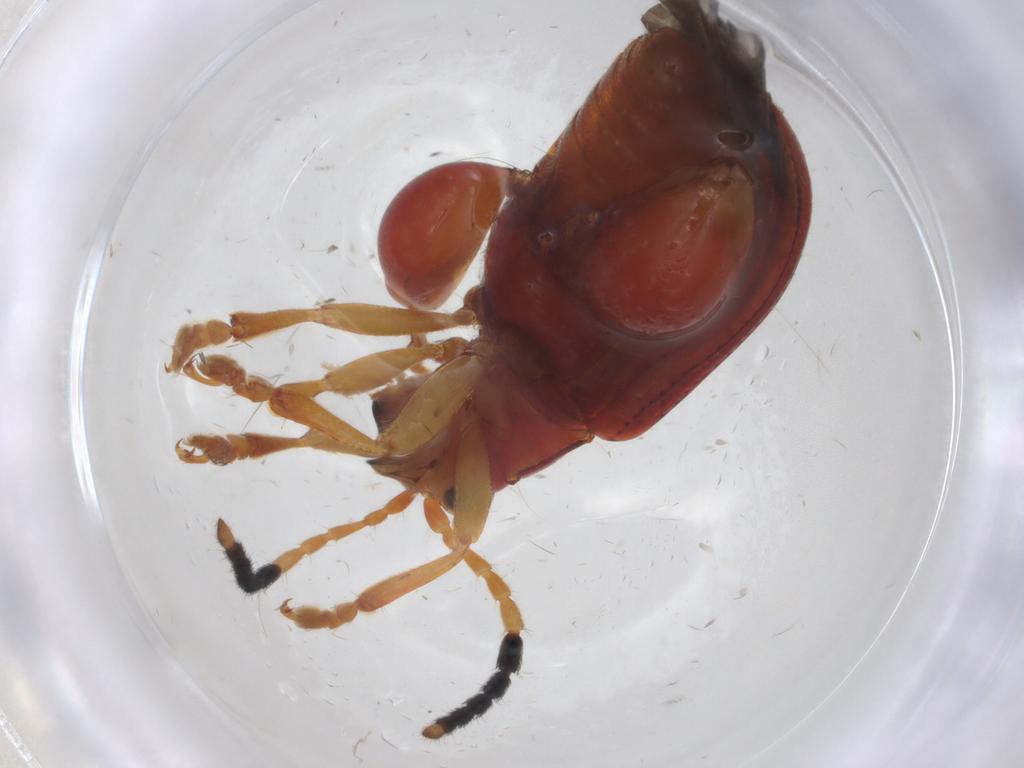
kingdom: Animalia
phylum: Arthropoda
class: Insecta
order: Coleoptera
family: Chrysomelidae
